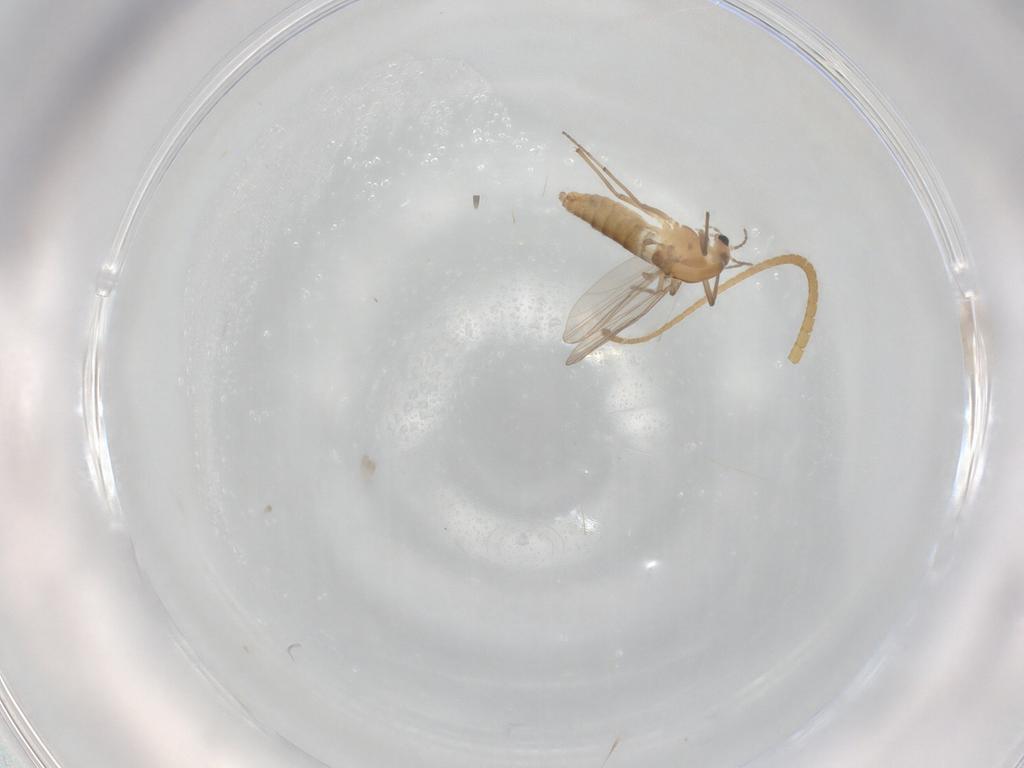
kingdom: Animalia
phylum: Arthropoda
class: Insecta
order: Diptera
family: Chironomidae
